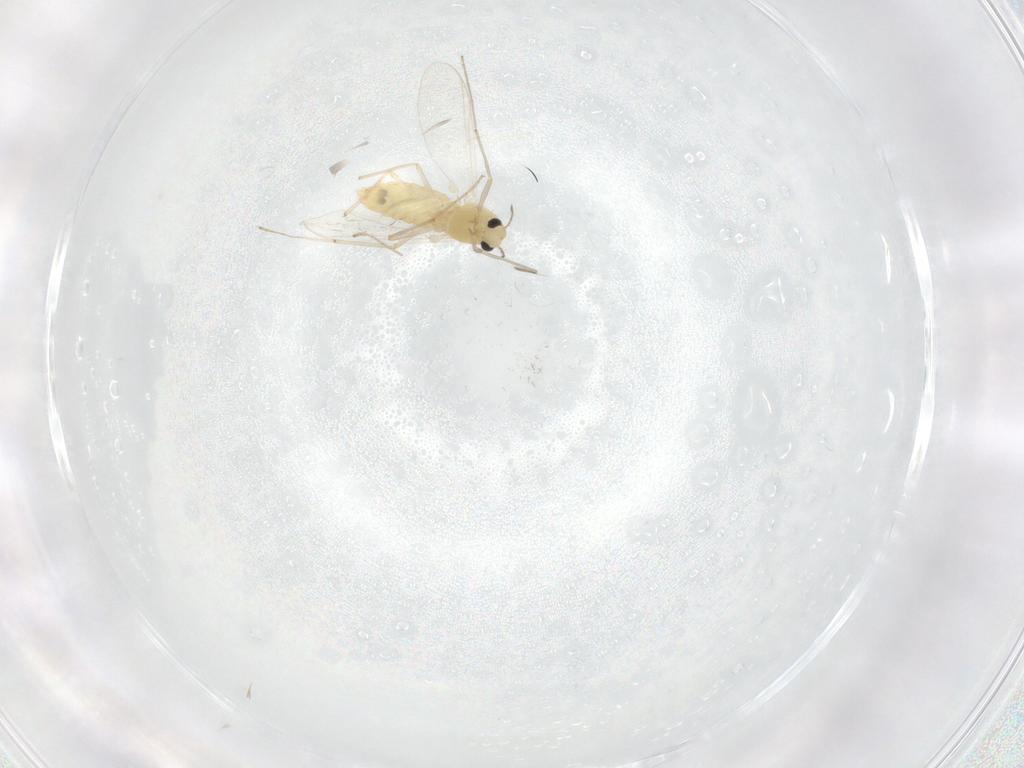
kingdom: Animalia
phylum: Arthropoda
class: Insecta
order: Diptera
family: Chironomidae
